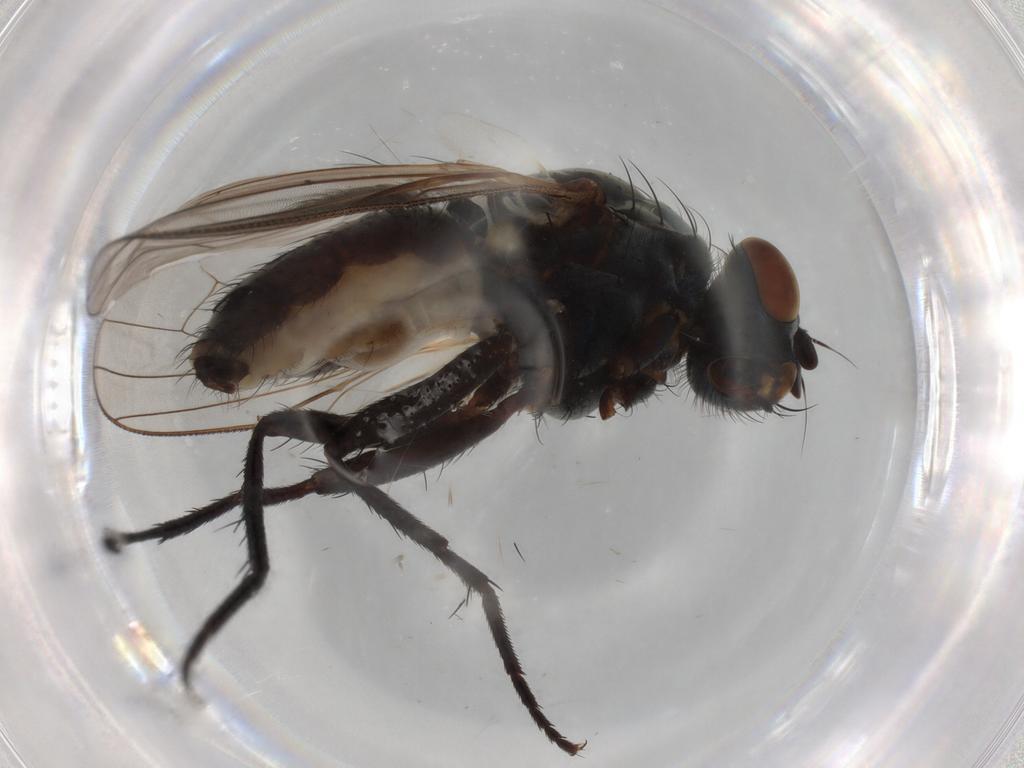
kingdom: Animalia
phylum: Arthropoda
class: Insecta
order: Diptera
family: Anthomyiidae
